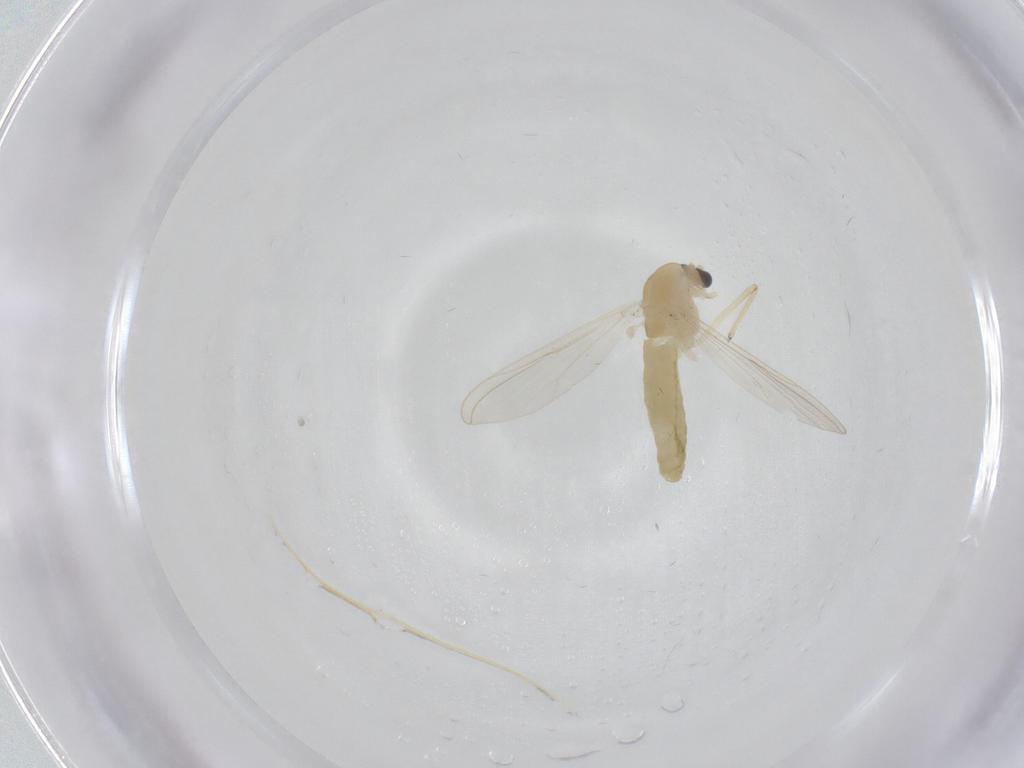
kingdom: Animalia
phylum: Arthropoda
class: Insecta
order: Diptera
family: Chironomidae
